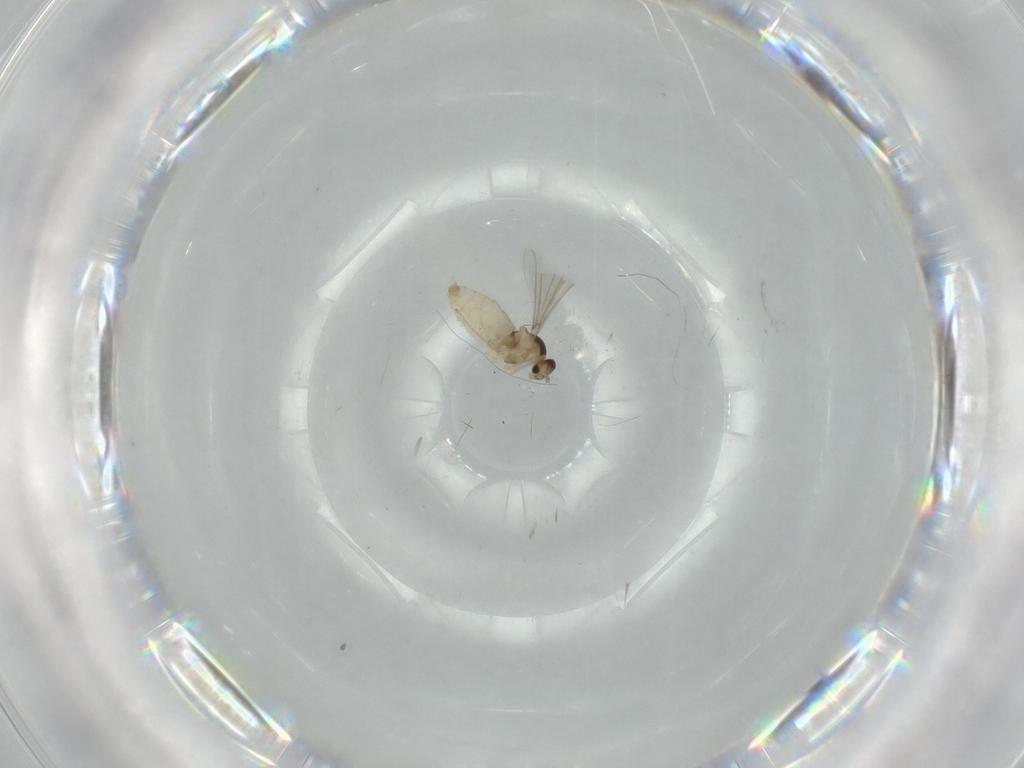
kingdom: Animalia
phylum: Arthropoda
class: Insecta
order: Diptera
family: Cecidomyiidae
